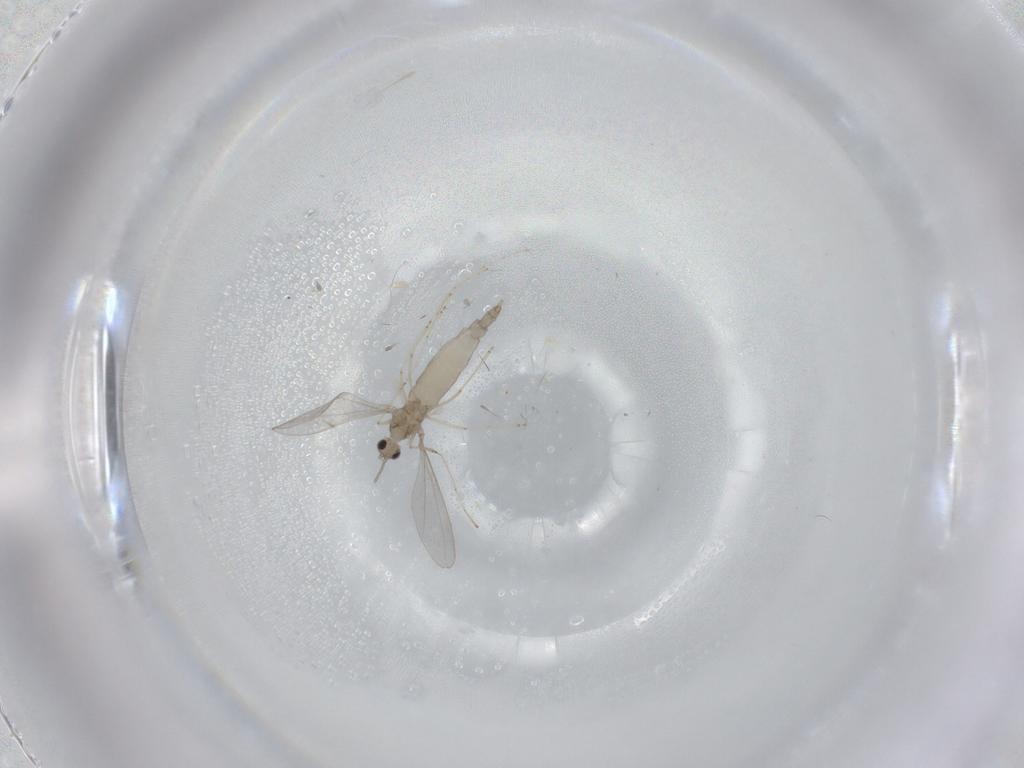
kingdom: Animalia
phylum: Arthropoda
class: Insecta
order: Diptera
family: Cecidomyiidae
